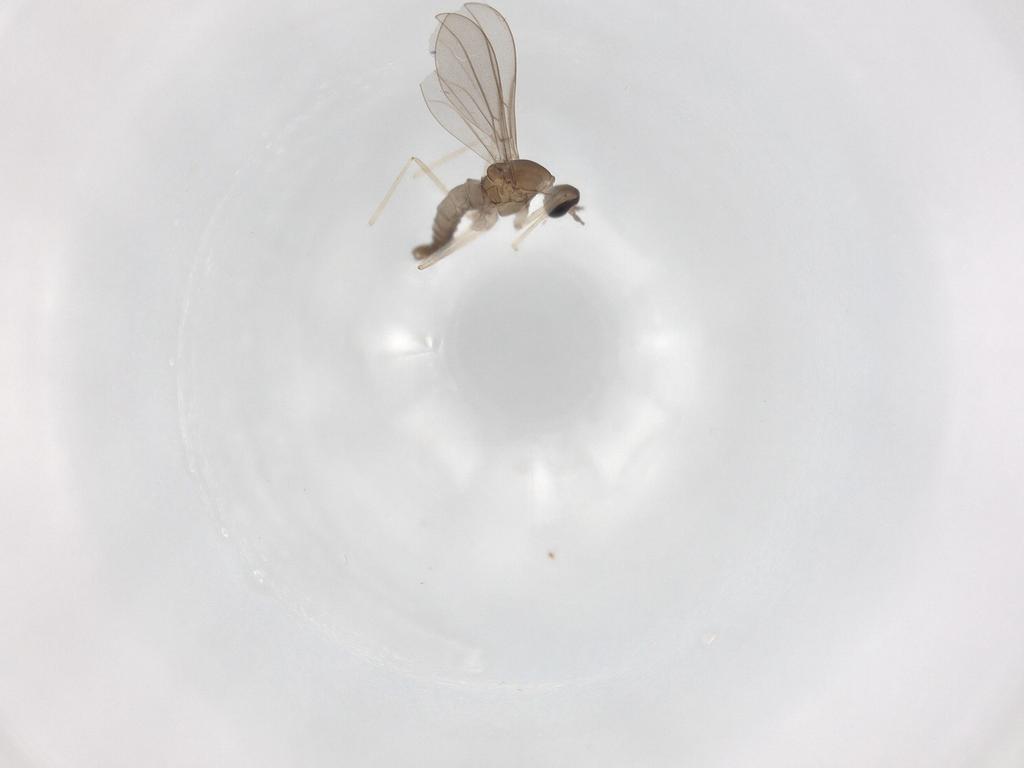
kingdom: Animalia
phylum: Arthropoda
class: Insecta
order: Diptera
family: Cecidomyiidae
